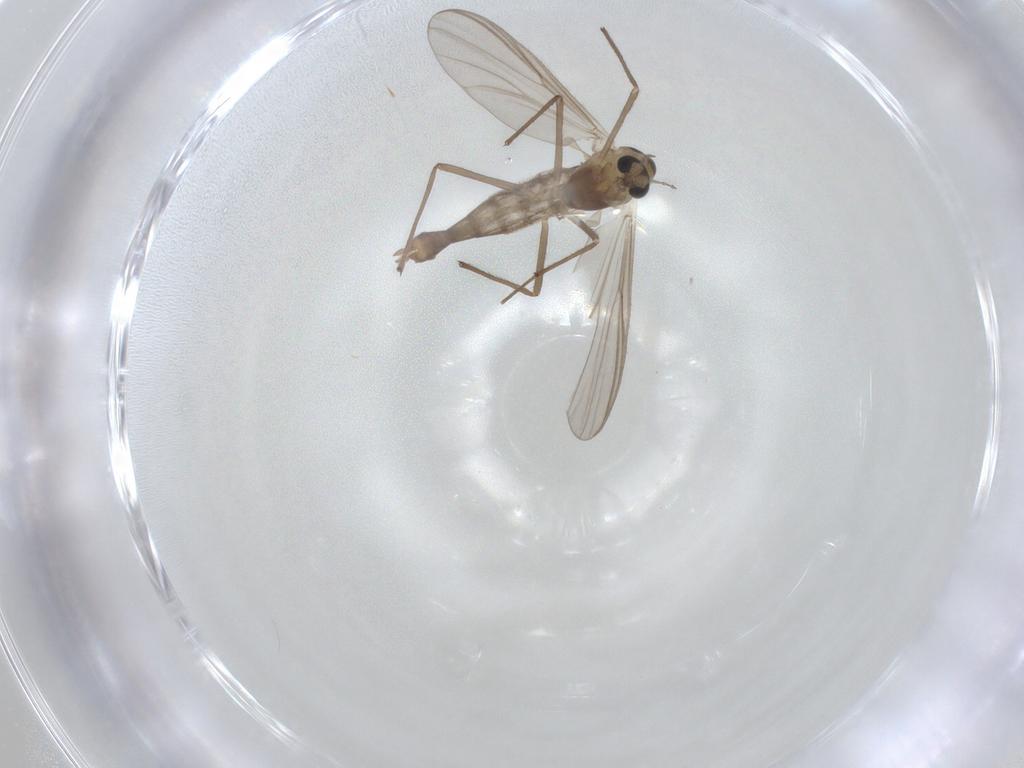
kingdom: Animalia
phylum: Arthropoda
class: Insecta
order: Diptera
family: Chironomidae
